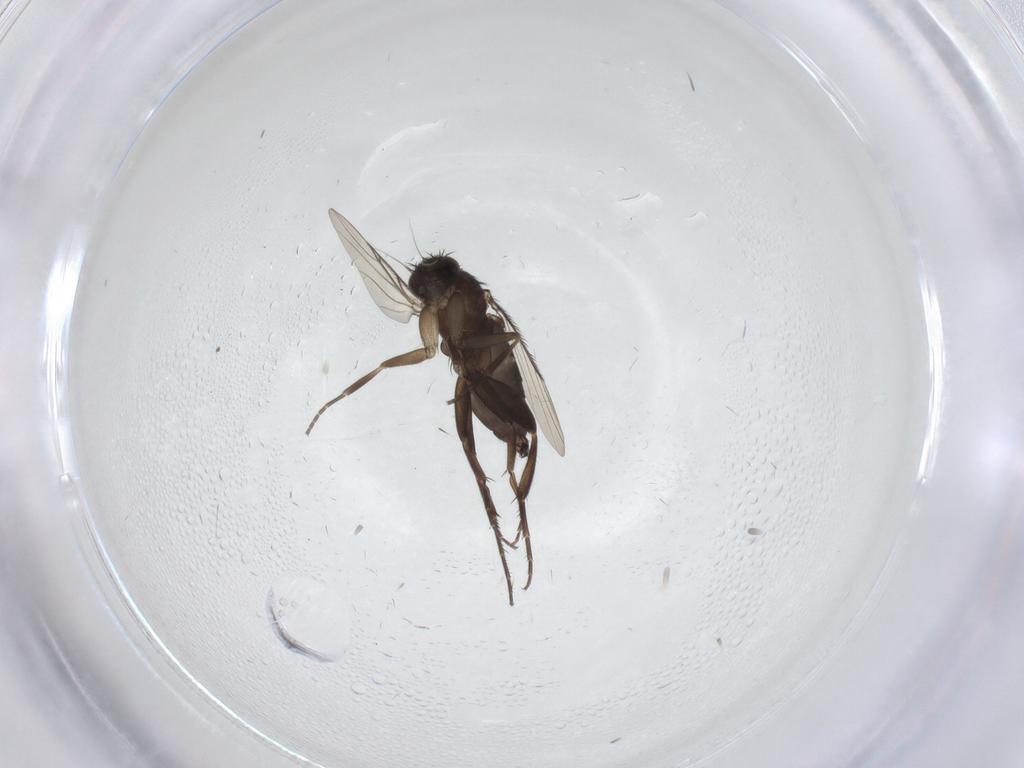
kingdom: Animalia
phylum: Arthropoda
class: Insecta
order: Diptera
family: Phoridae
